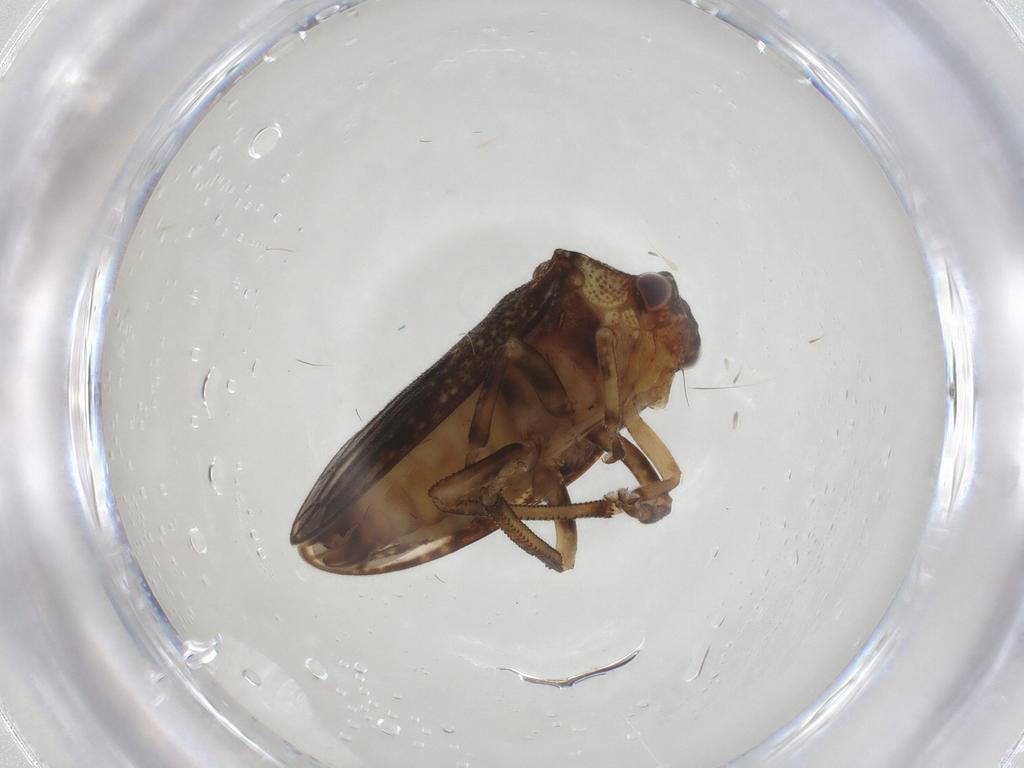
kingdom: Animalia
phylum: Arthropoda
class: Insecta
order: Hemiptera
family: Aetalionidae
